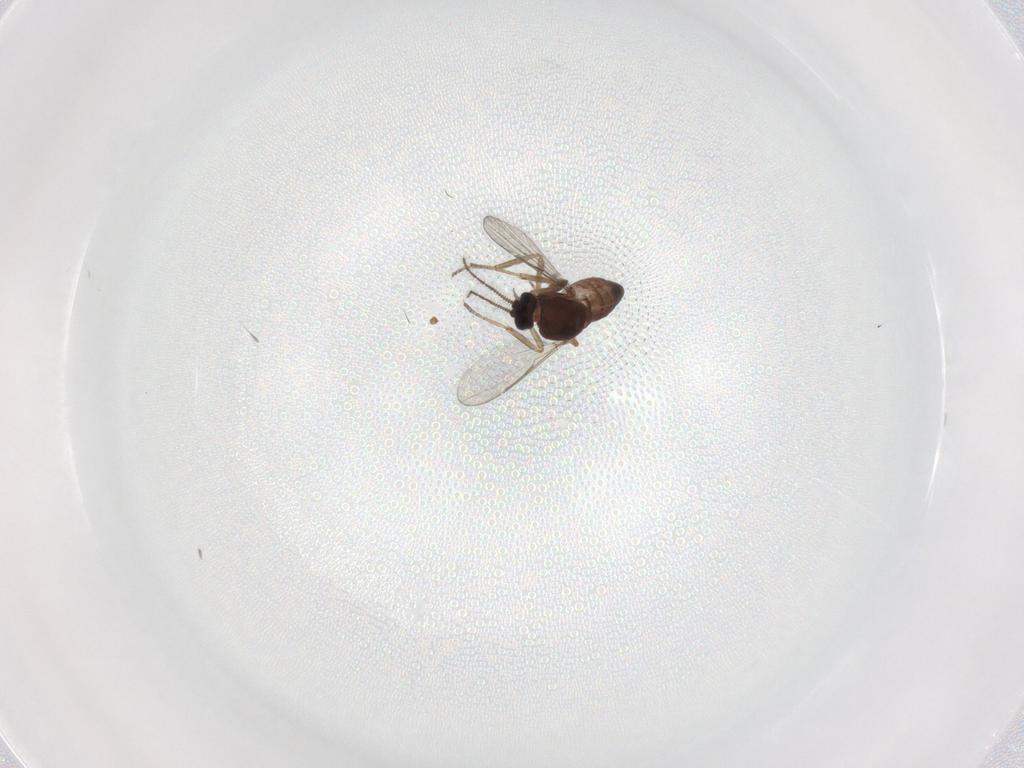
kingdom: Animalia
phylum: Arthropoda
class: Insecta
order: Diptera
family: Ceratopogonidae
